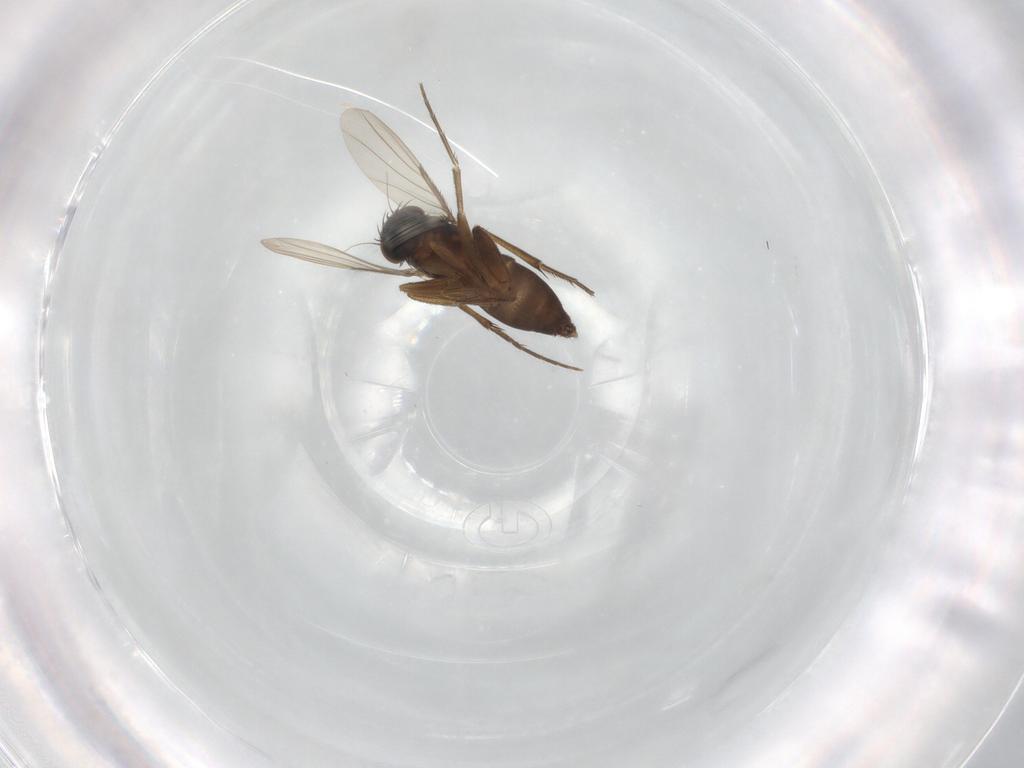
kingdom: Animalia
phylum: Arthropoda
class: Insecta
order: Diptera
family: Phoridae
